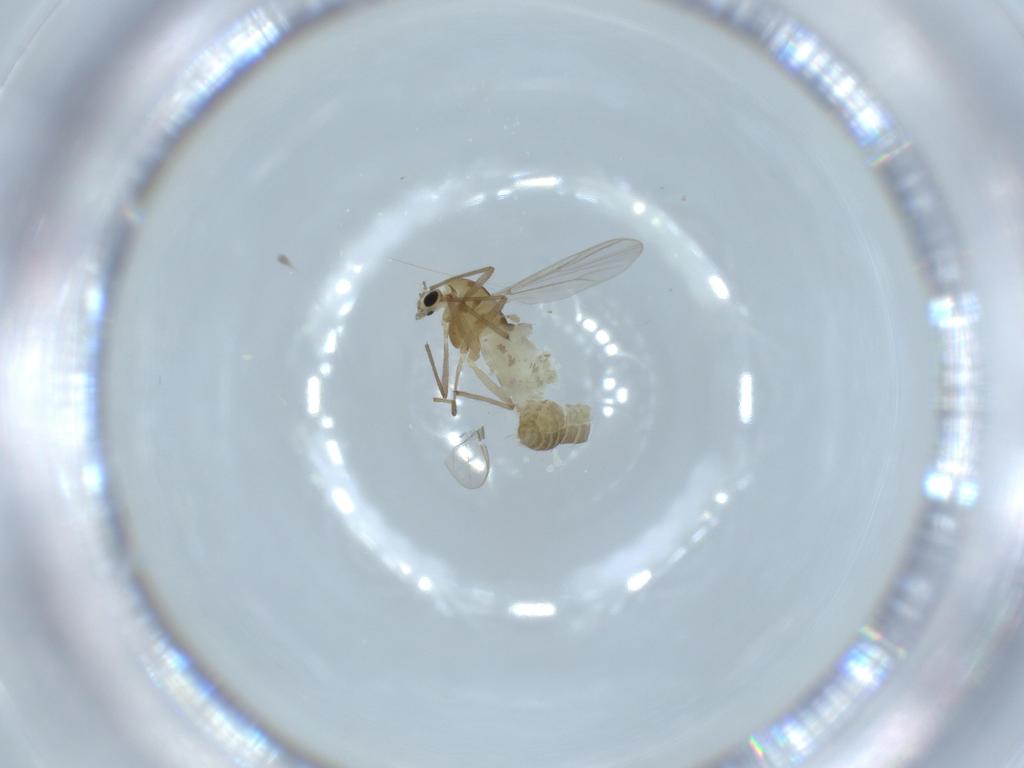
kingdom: Animalia
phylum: Arthropoda
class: Insecta
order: Diptera
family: Chironomidae
